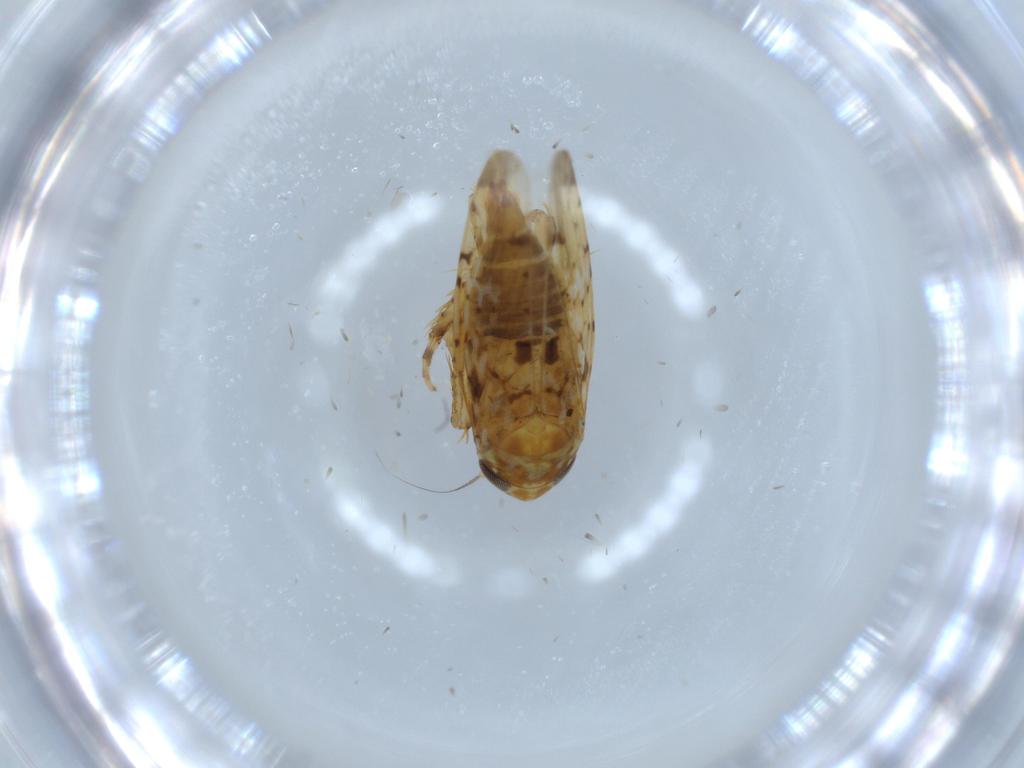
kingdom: Animalia
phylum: Arthropoda
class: Insecta
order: Hemiptera
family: Cicadellidae
